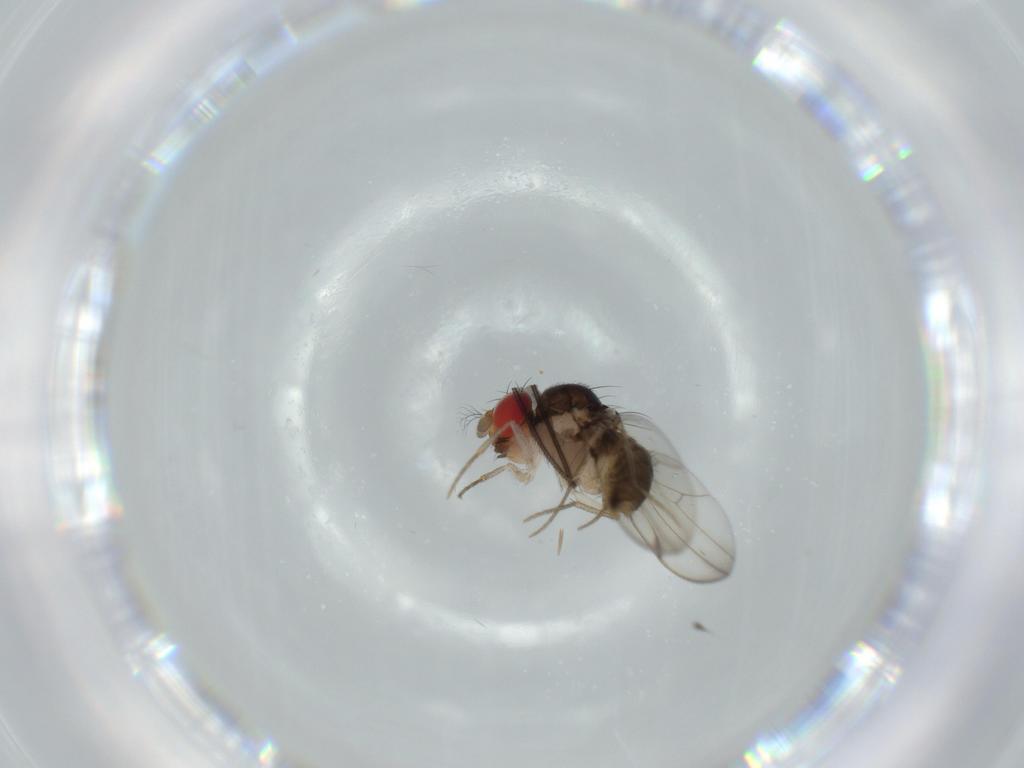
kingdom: Animalia
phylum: Arthropoda
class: Insecta
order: Diptera
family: Drosophilidae
